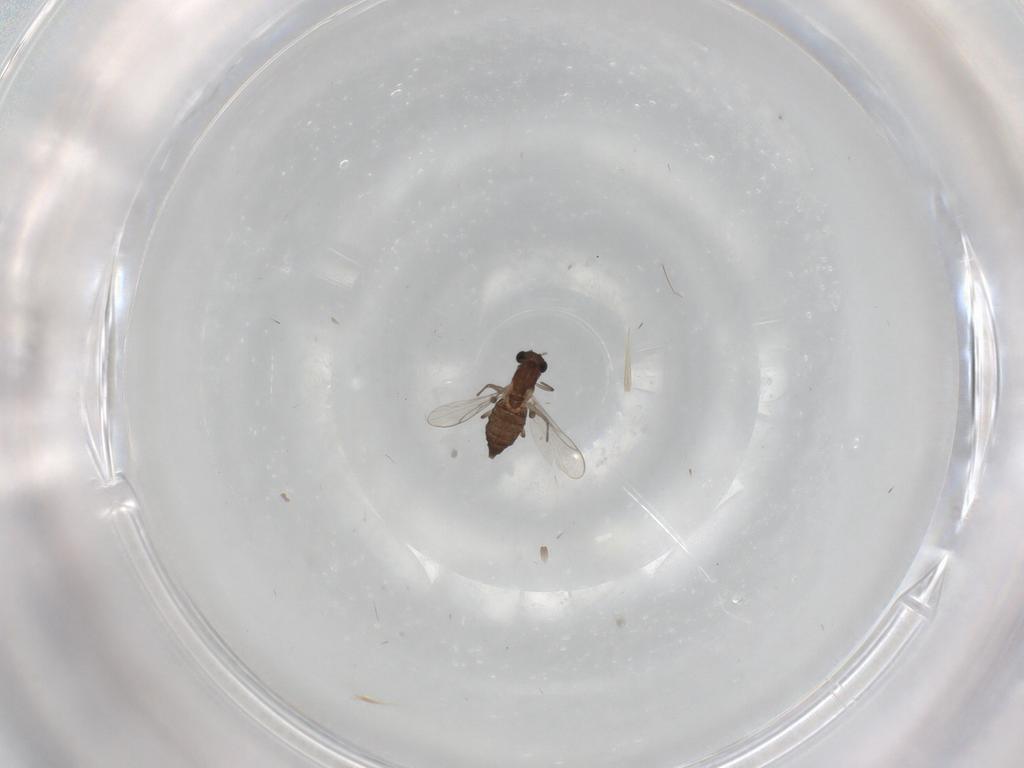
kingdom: Animalia
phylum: Arthropoda
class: Insecta
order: Diptera
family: Chironomidae
